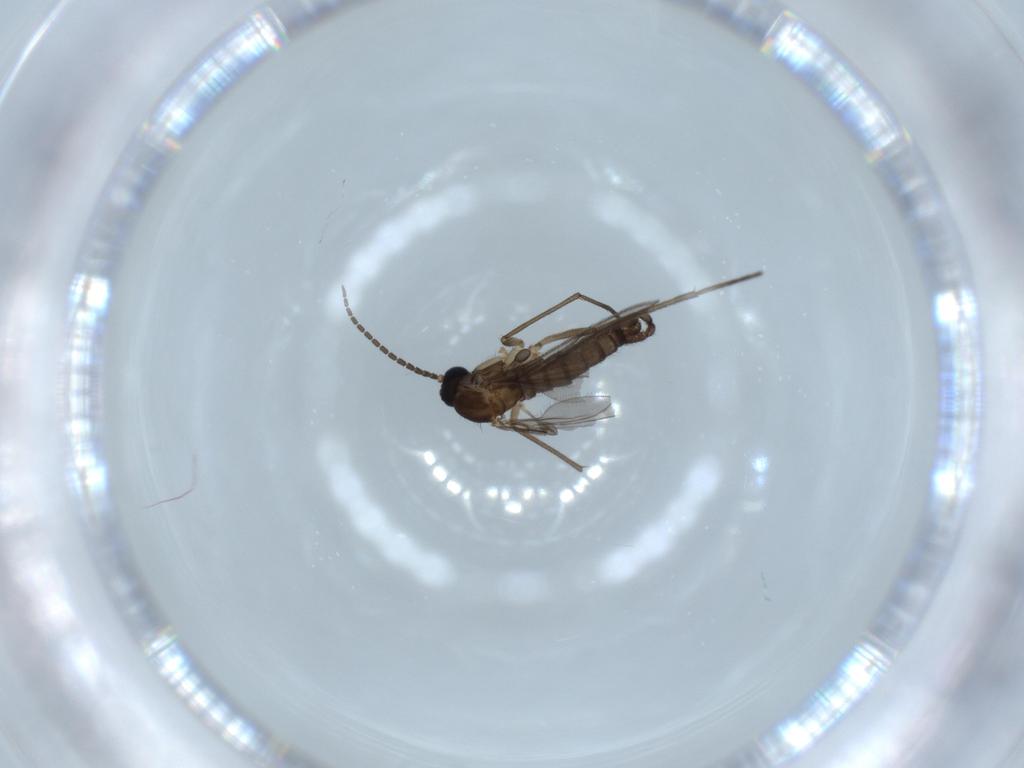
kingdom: Animalia
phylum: Arthropoda
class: Insecta
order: Diptera
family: Sciaridae
